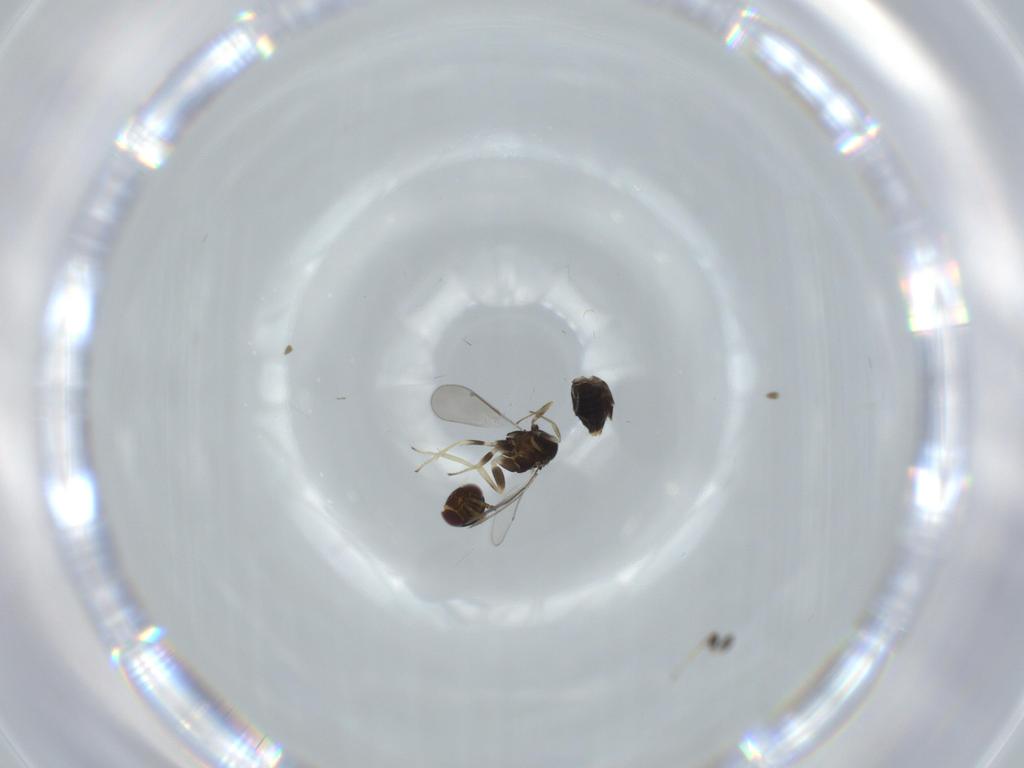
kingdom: Animalia
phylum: Arthropoda
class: Insecta
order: Hymenoptera
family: Aphelinidae
